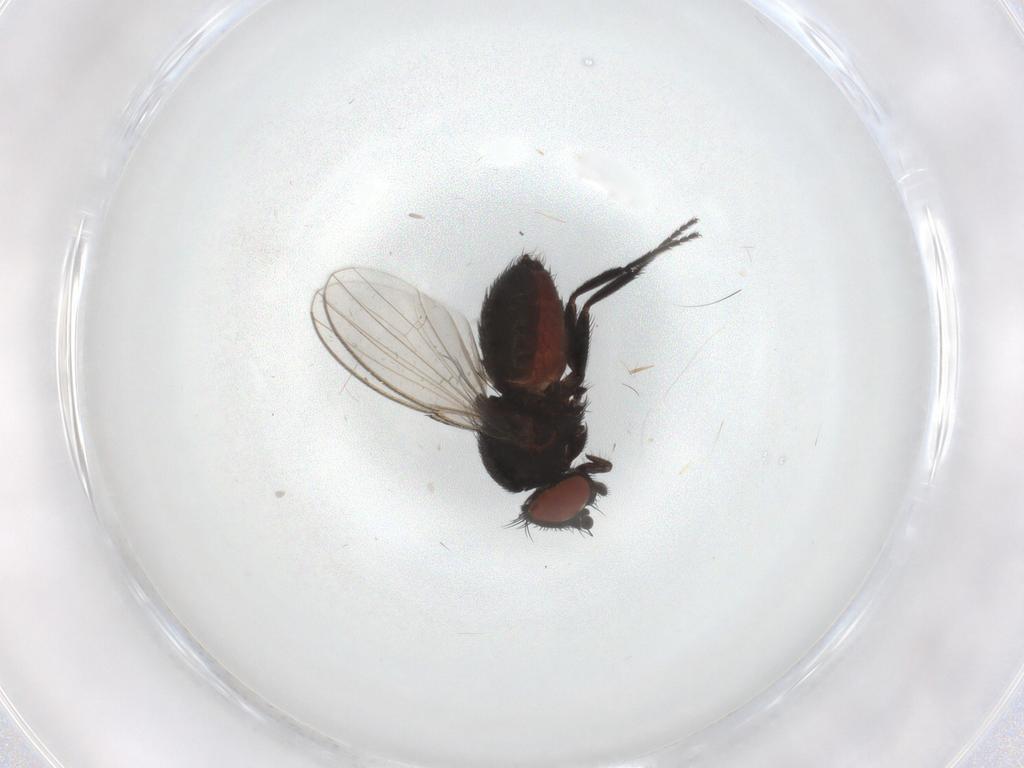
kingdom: Animalia
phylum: Arthropoda
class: Insecta
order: Diptera
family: Milichiidae
